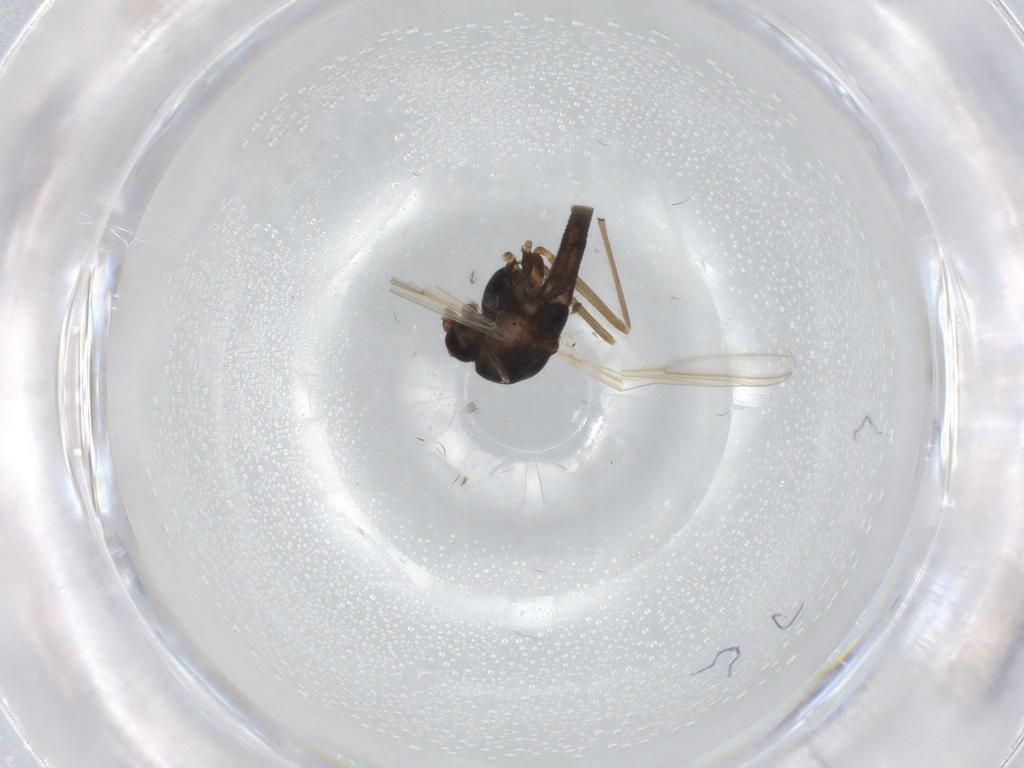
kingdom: Animalia
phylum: Arthropoda
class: Insecta
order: Diptera
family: Chironomidae
